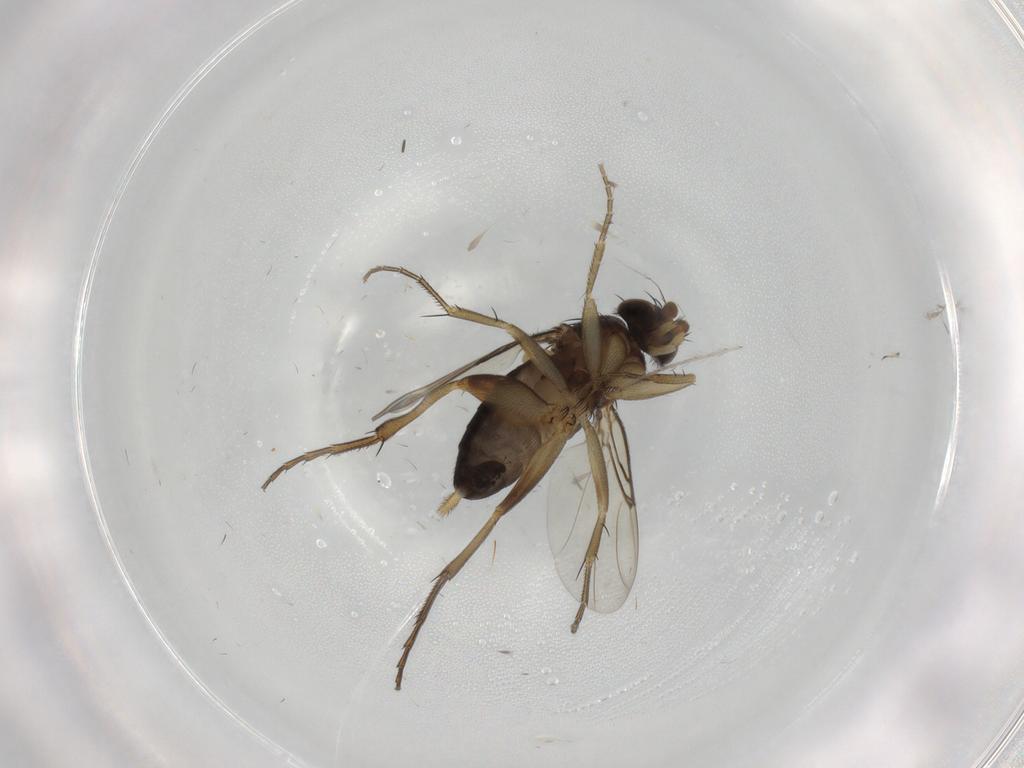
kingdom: Animalia
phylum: Arthropoda
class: Insecta
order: Diptera
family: Phoridae
